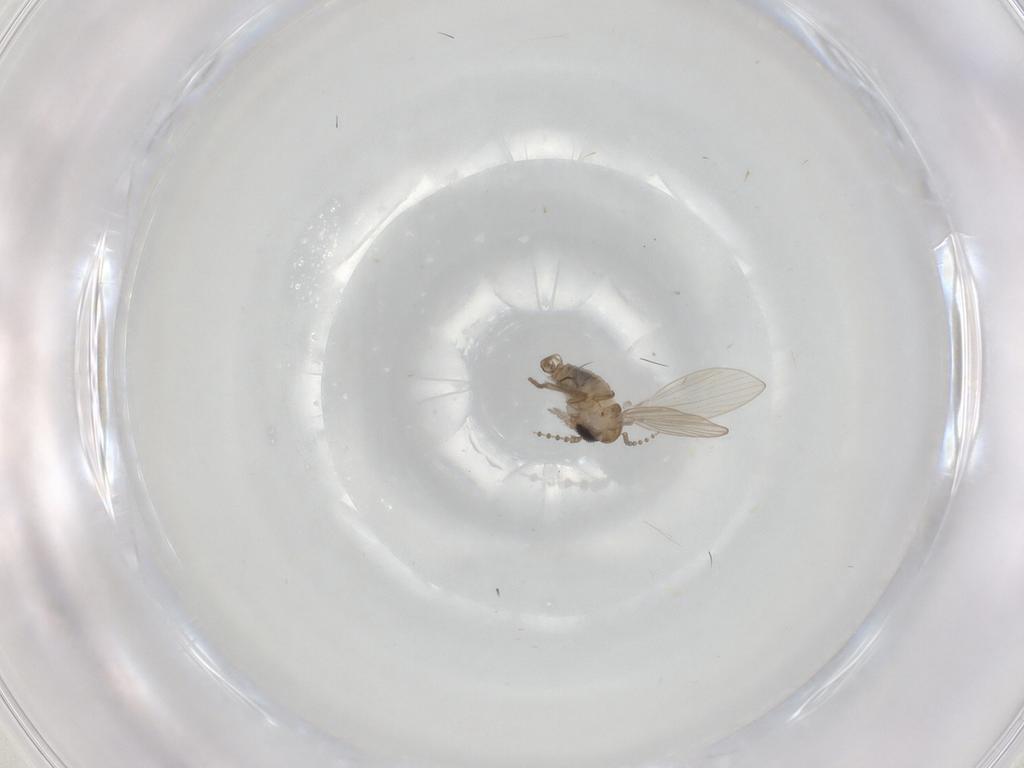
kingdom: Animalia
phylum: Arthropoda
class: Insecta
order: Diptera
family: Psychodidae
